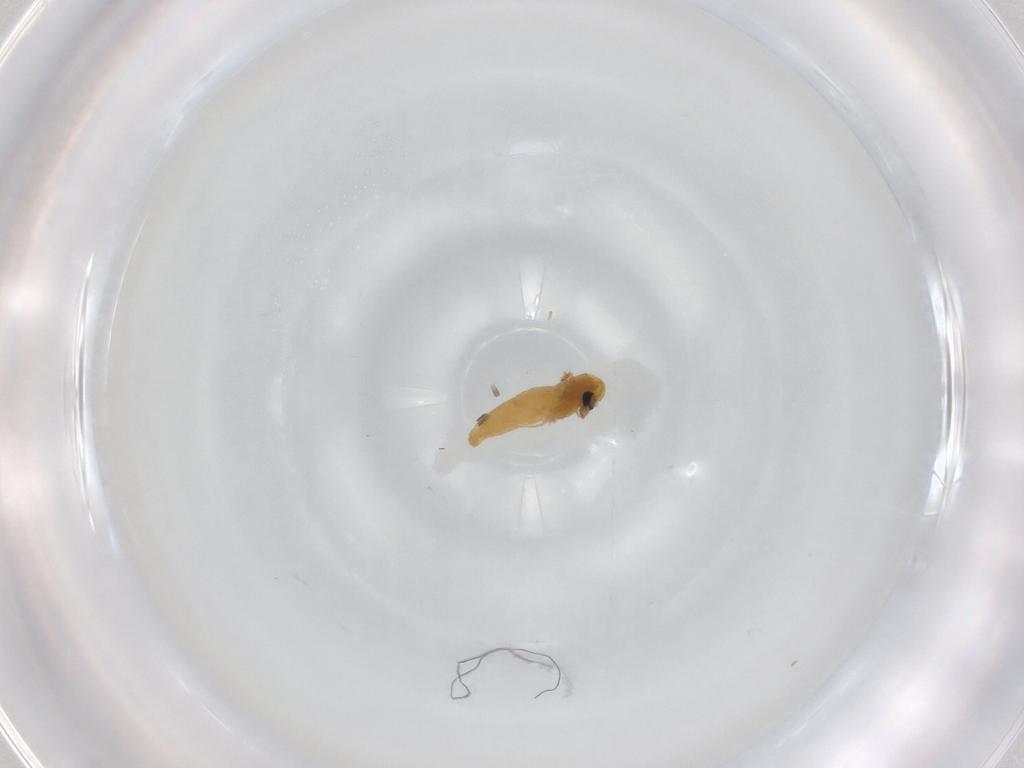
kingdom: Animalia
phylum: Arthropoda
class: Insecta
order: Diptera
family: Chironomidae
